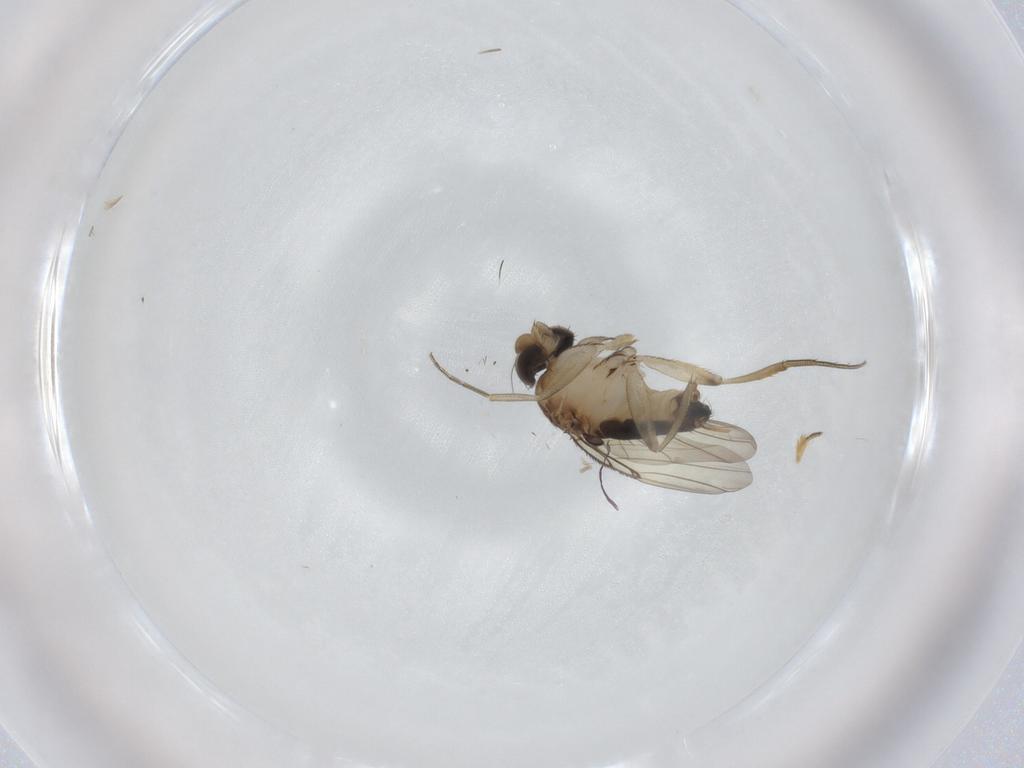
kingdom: Animalia
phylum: Arthropoda
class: Insecta
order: Diptera
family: Phoridae
